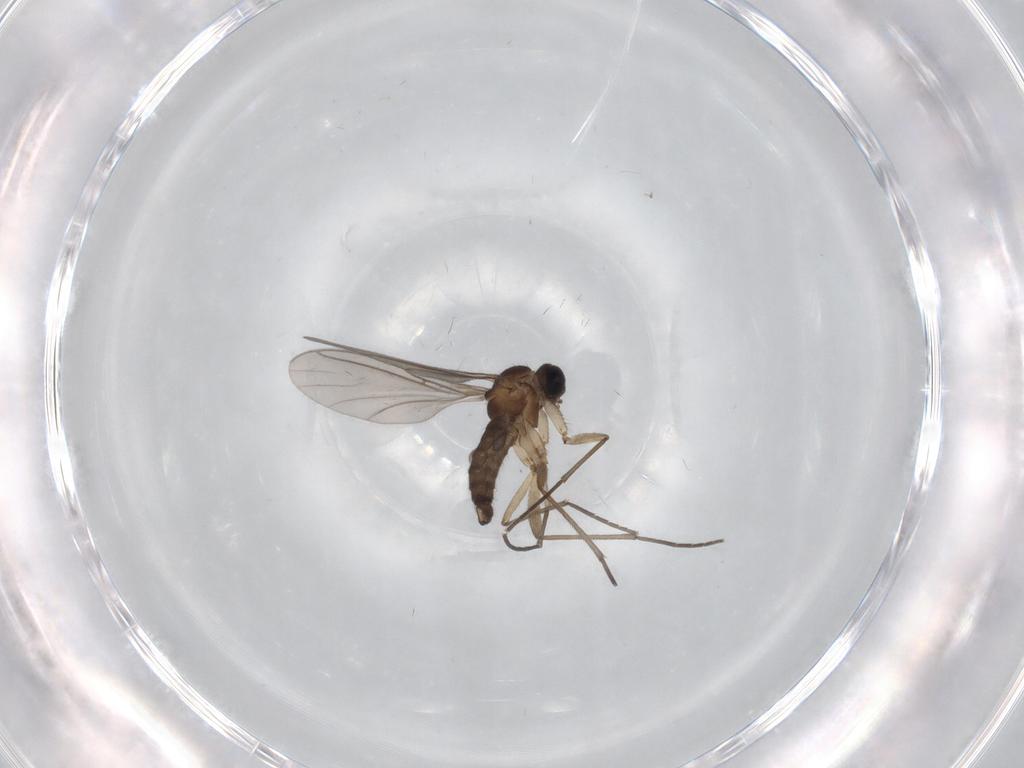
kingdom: Animalia
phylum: Arthropoda
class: Insecta
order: Diptera
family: Sciaridae
